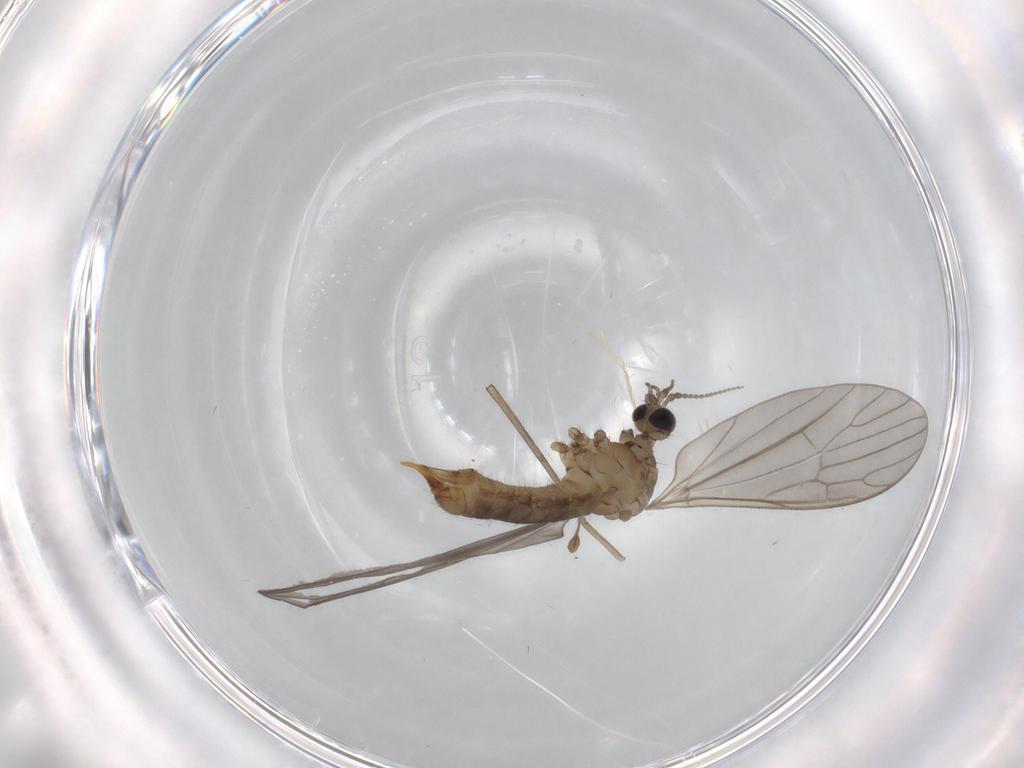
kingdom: Animalia
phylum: Arthropoda
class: Insecta
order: Diptera
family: Limoniidae
